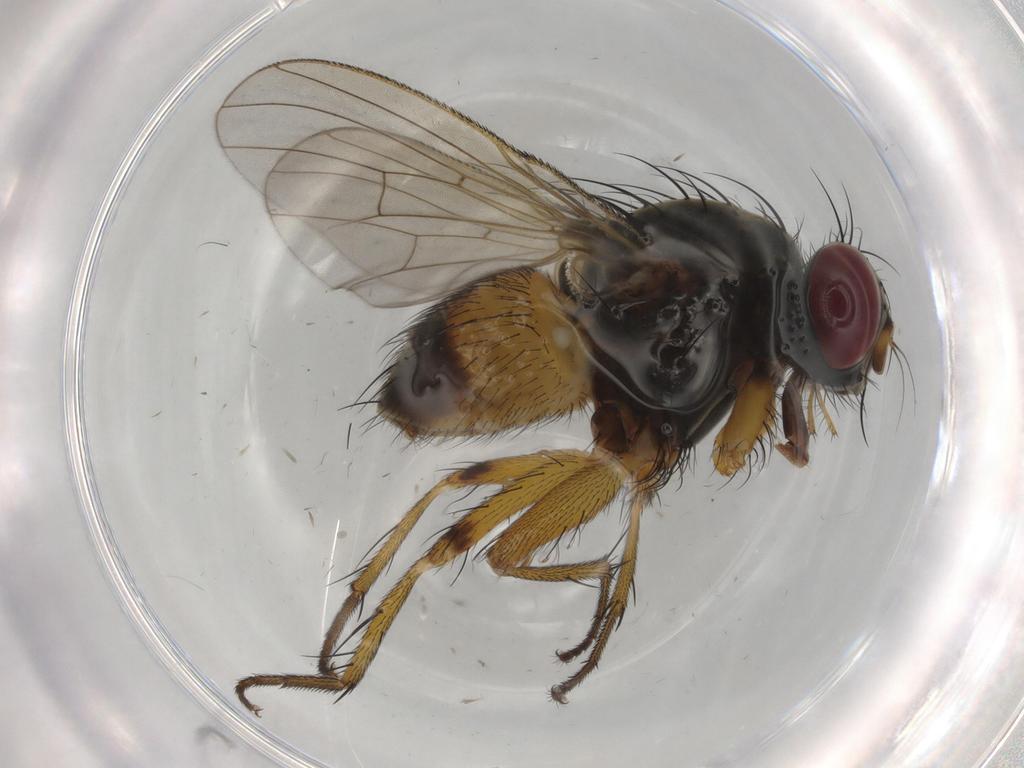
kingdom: Animalia
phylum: Arthropoda
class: Insecta
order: Diptera
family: Muscidae
